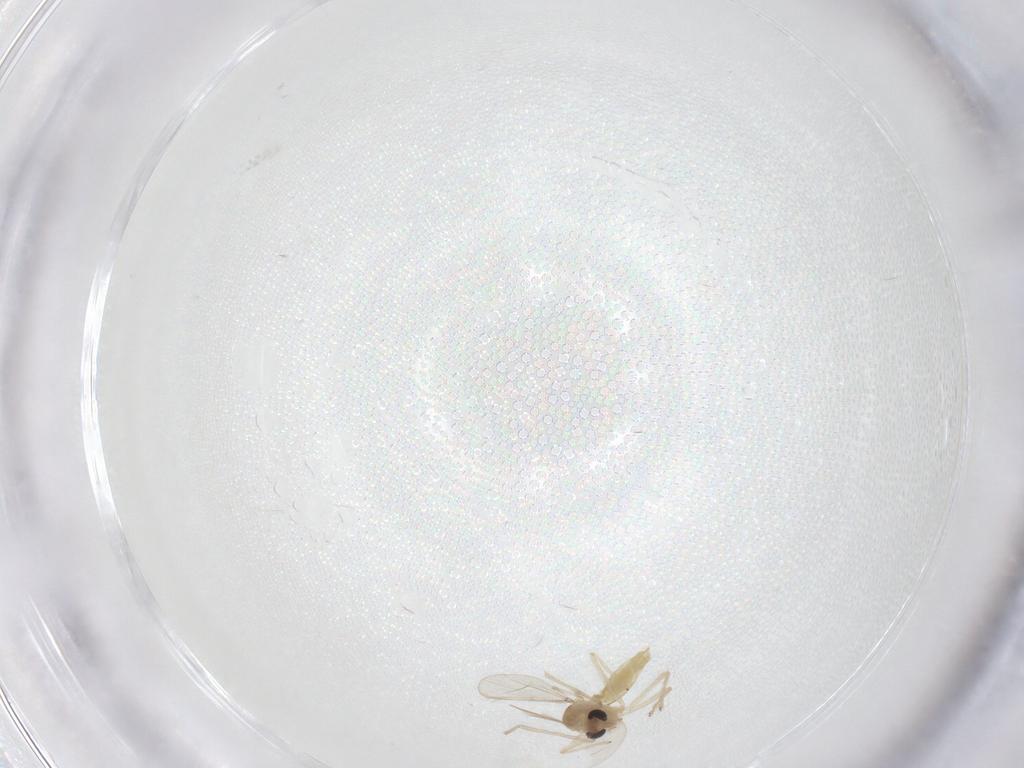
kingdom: Animalia
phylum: Arthropoda
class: Insecta
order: Diptera
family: Chironomidae
